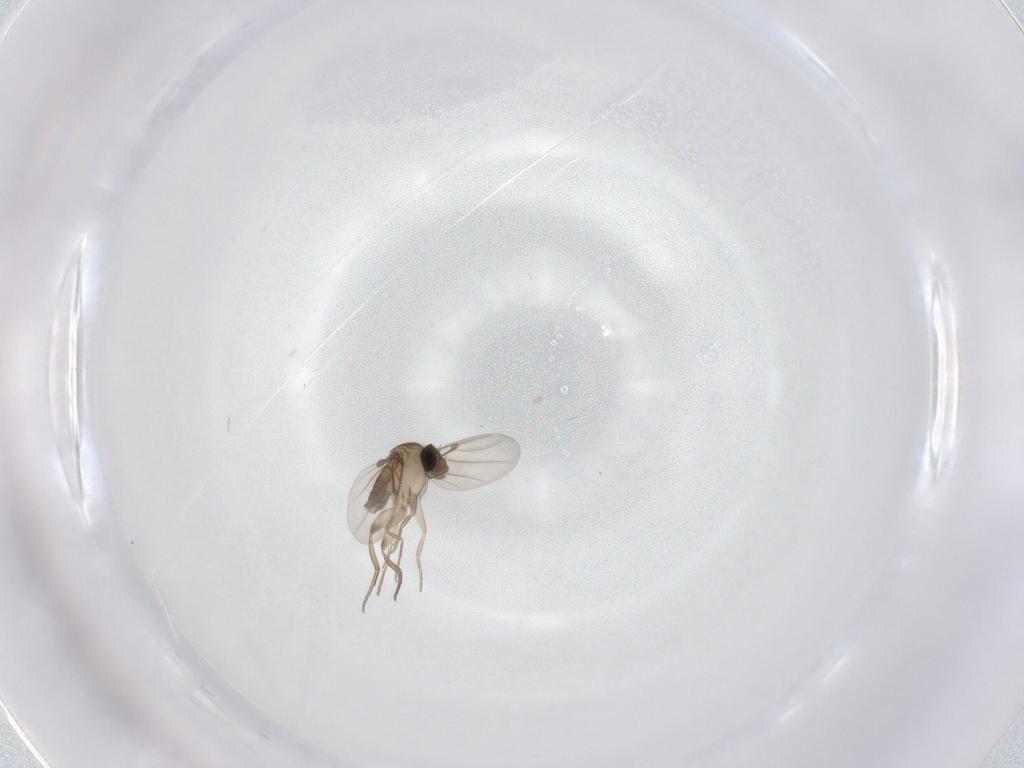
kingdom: Animalia
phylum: Arthropoda
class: Insecta
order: Diptera
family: Phoridae
